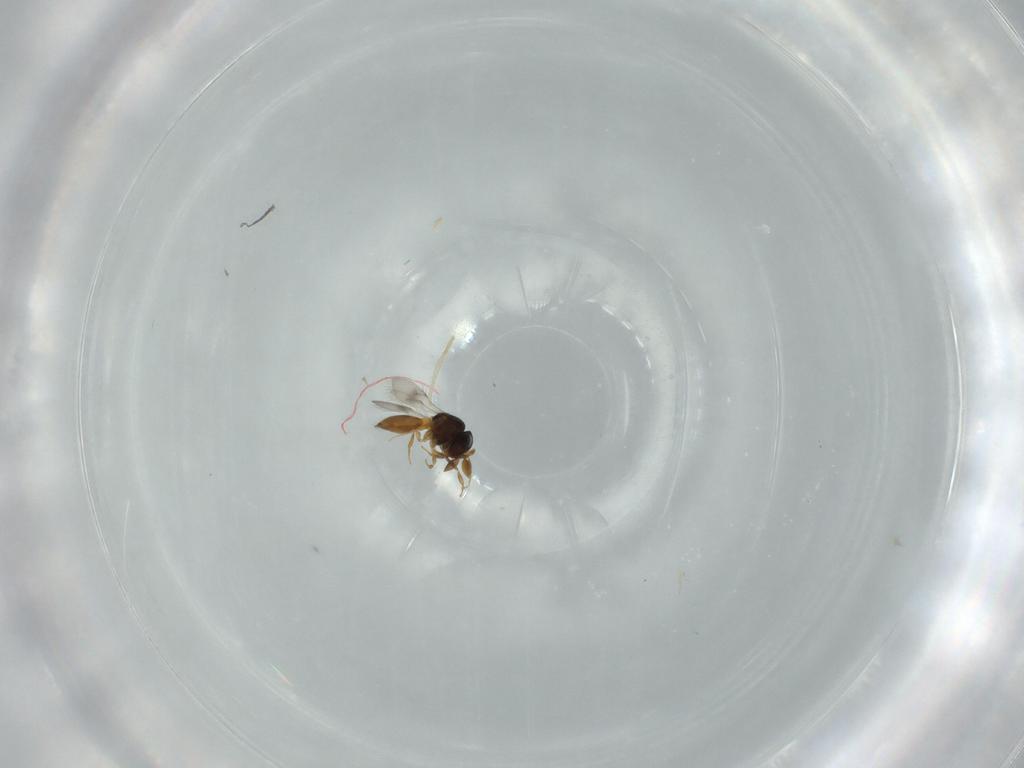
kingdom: Animalia
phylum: Arthropoda
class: Insecta
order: Hymenoptera
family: Scelionidae
